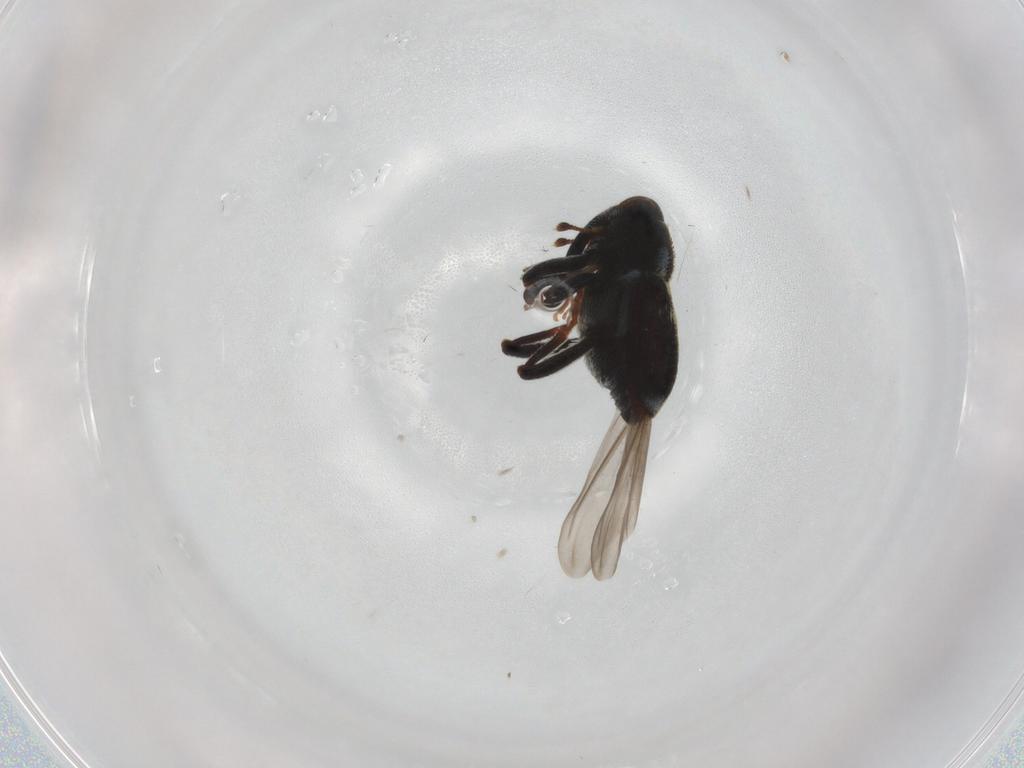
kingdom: Animalia
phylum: Arthropoda
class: Insecta
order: Coleoptera
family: Curculionidae
